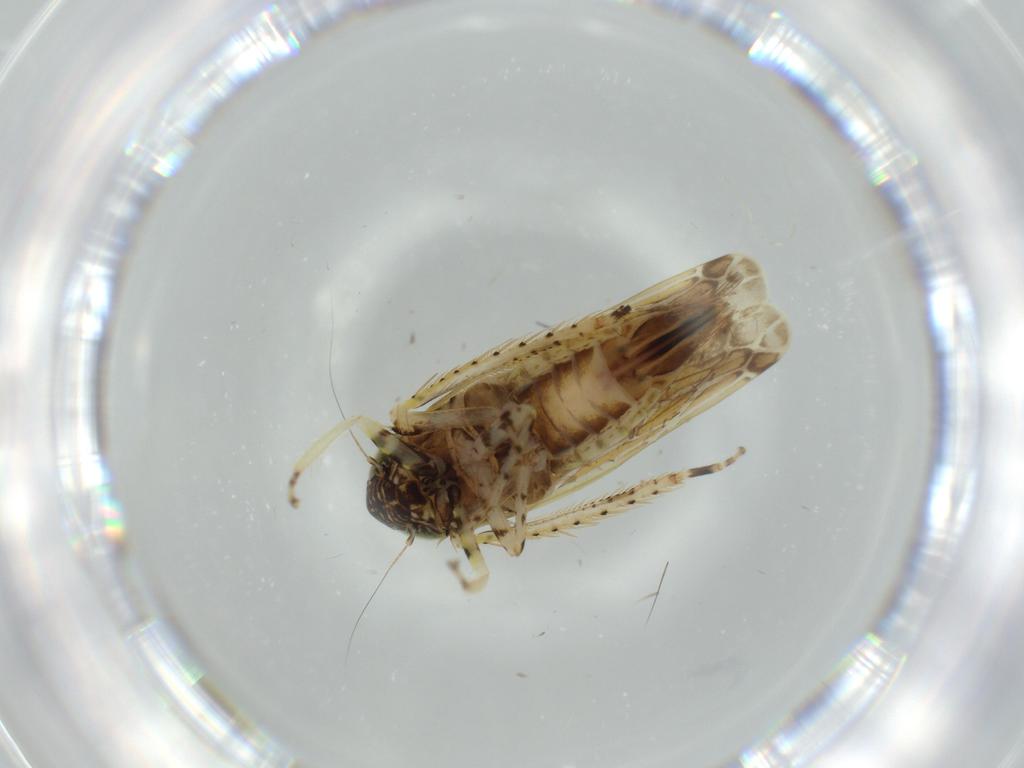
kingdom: Animalia
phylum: Arthropoda
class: Insecta
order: Hemiptera
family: Cicadellidae
